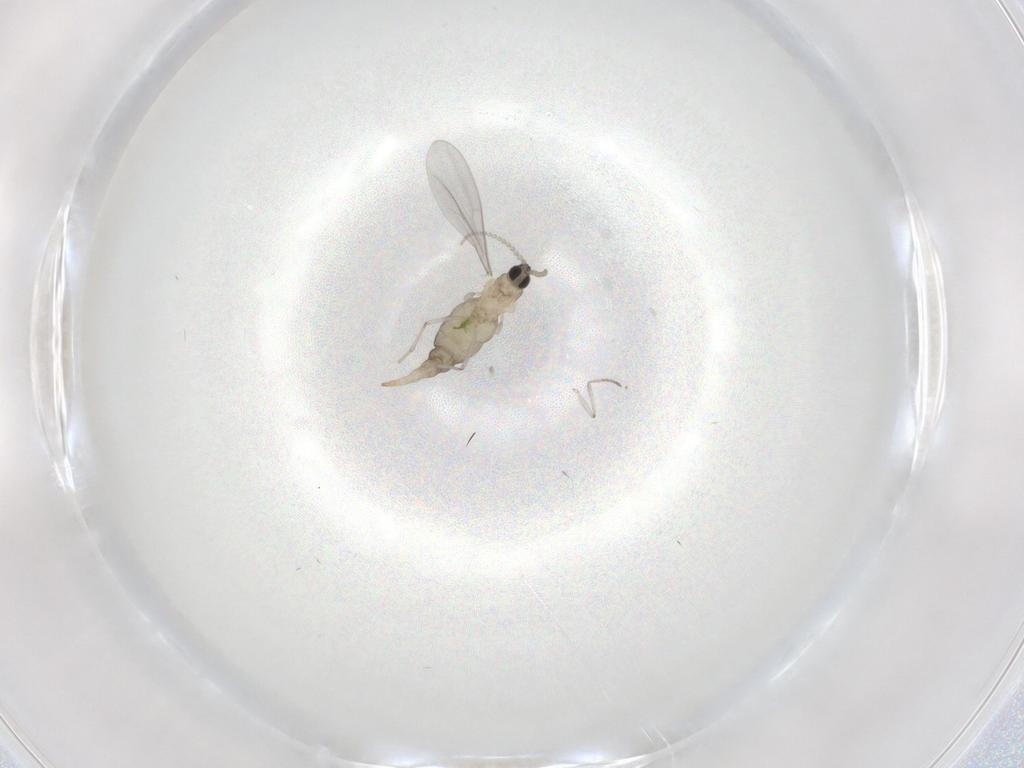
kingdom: Animalia
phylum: Arthropoda
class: Insecta
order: Diptera
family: Cecidomyiidae
